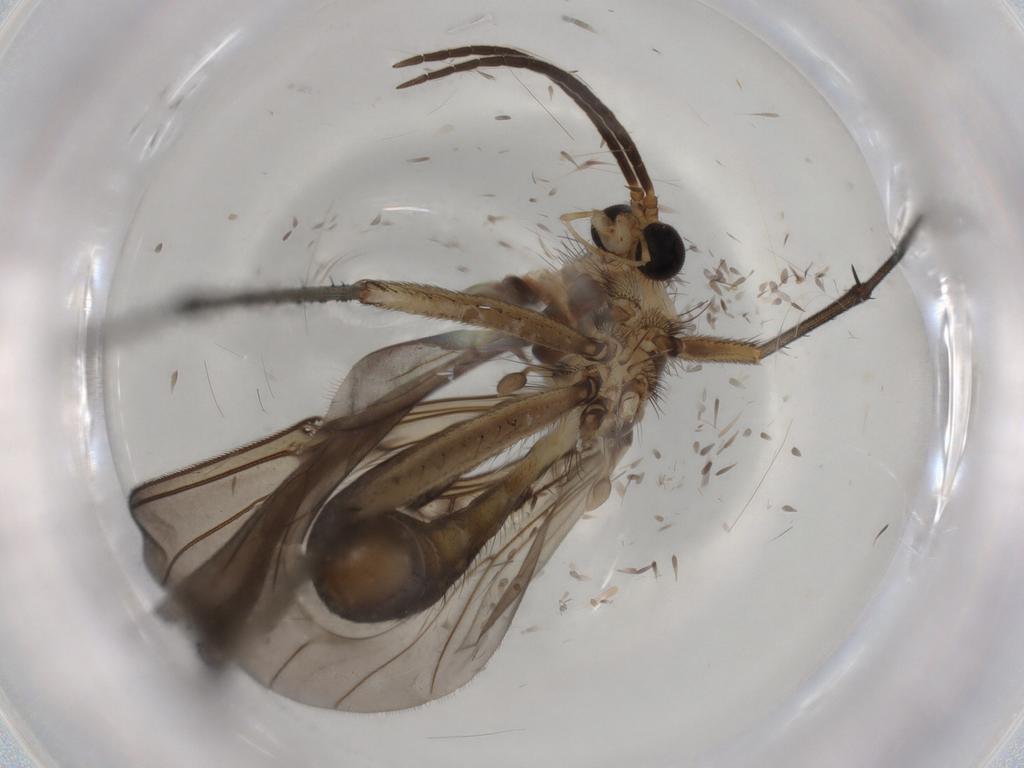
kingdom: Animalia
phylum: Arthropoda
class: Insecta
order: Diptera
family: Mycetophilidae
